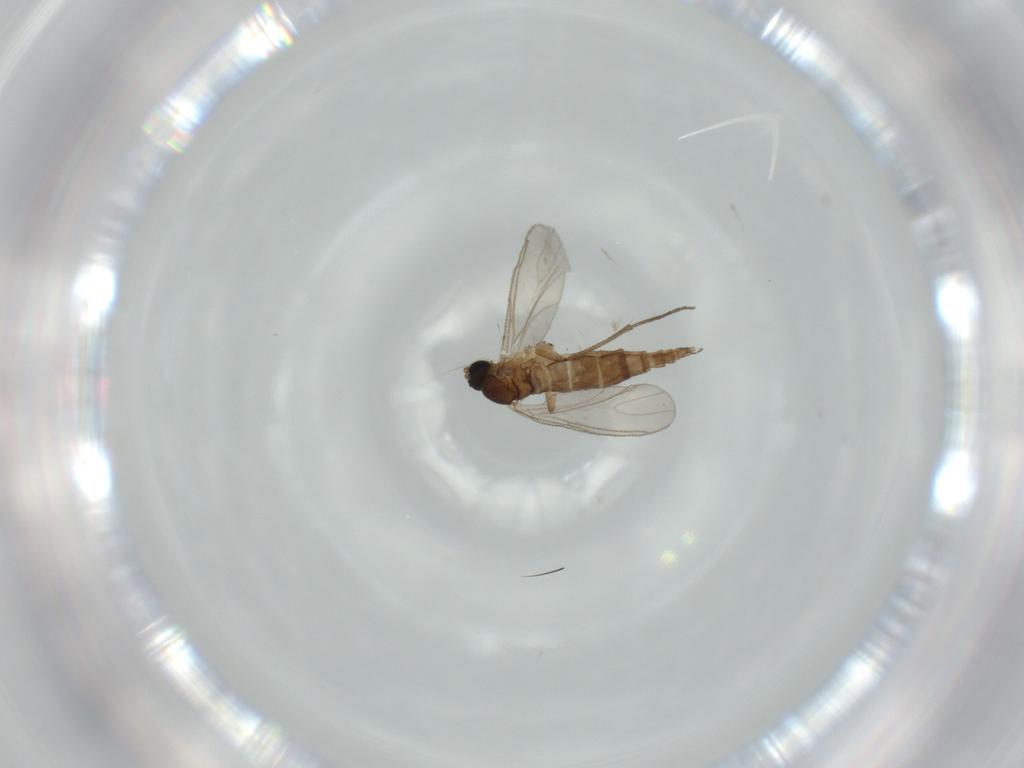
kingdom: Animalia
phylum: Arthropoda
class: Insecta
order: Diptera
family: Sciaridae
